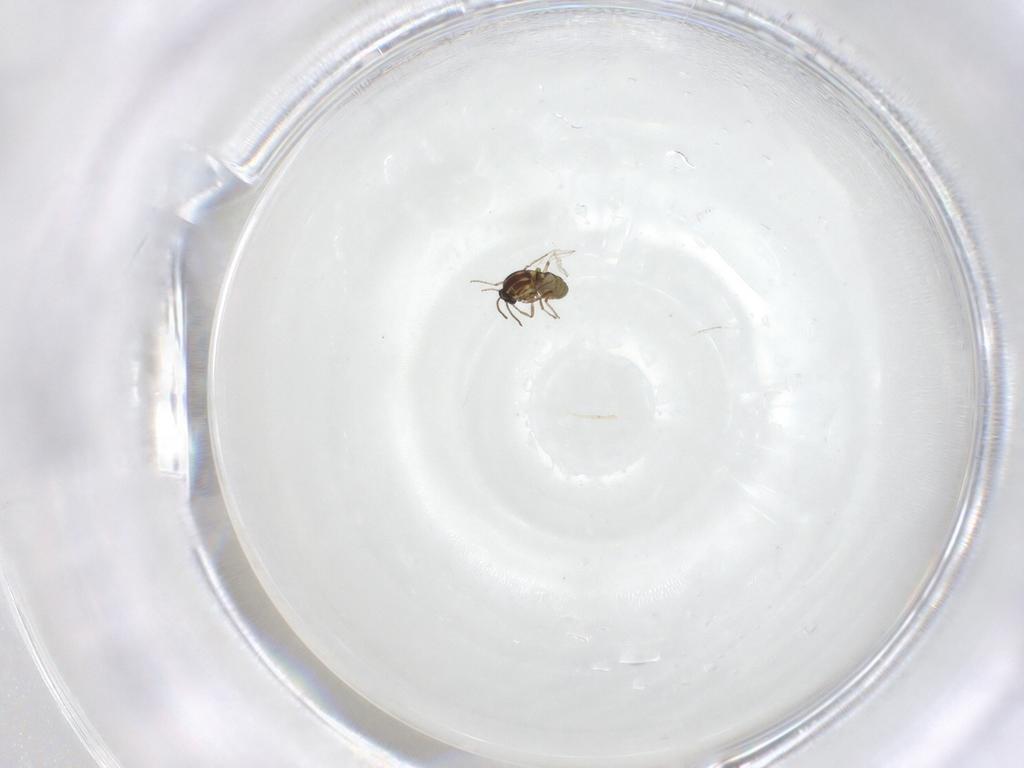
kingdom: Animalia
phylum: Arthropoda
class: Insecta
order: Diptera
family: Ceratopogonidae
